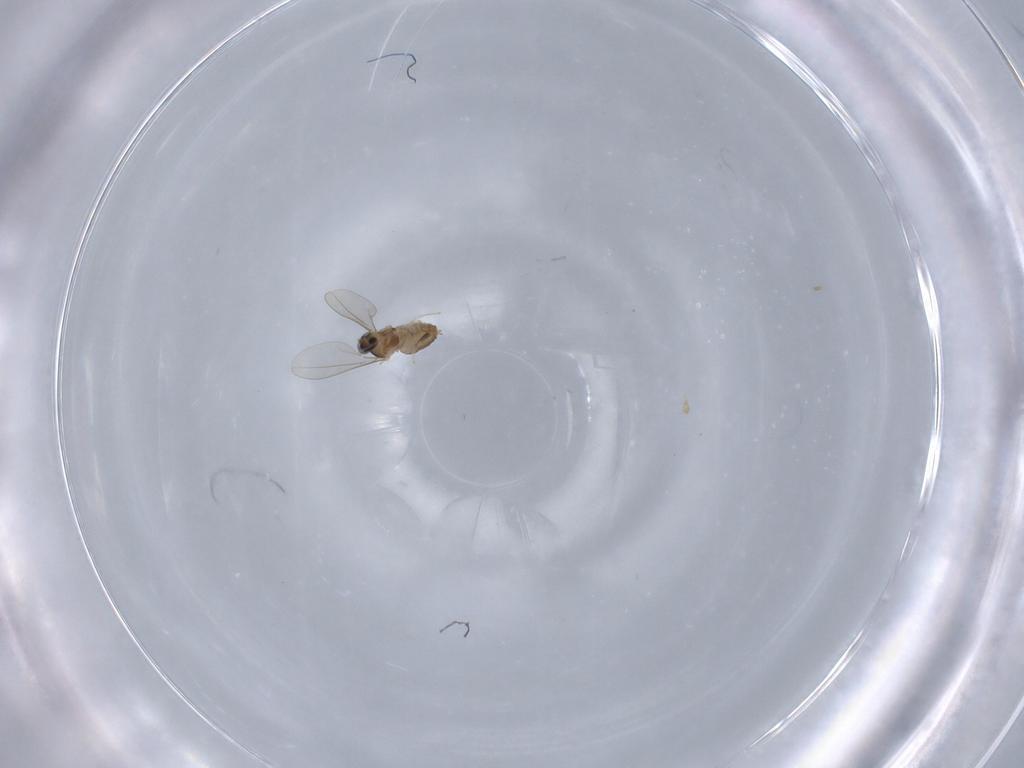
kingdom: Animalia
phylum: Arthropoda
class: Insecta
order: Diptera
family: Cecidomyiidae
